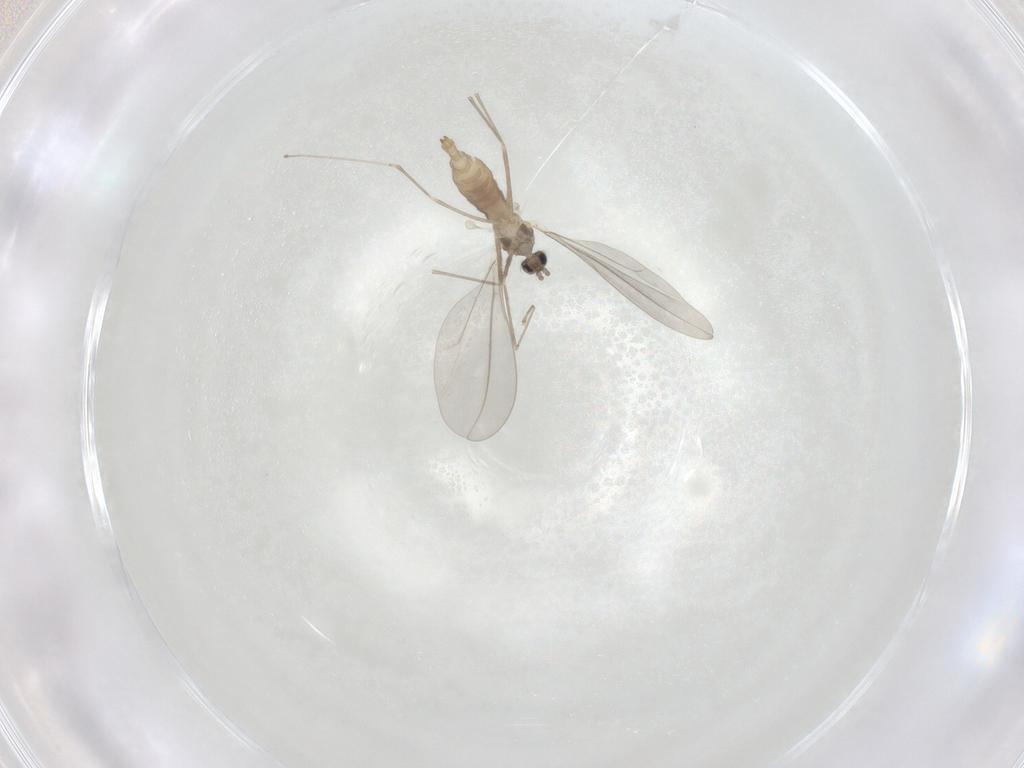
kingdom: Animalia
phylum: Arthropoda
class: Insecta
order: Diptera
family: Cecidomyiidae
